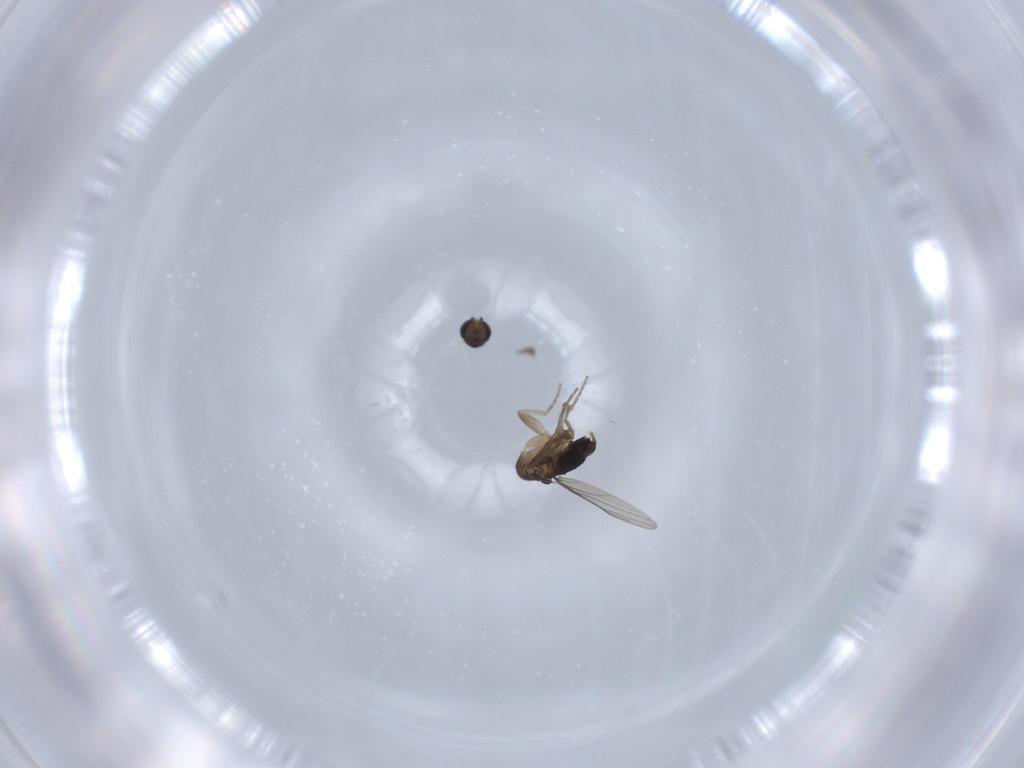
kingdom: Animalia
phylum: Arthropoda
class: Insecta
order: Diptera
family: Phoridae
